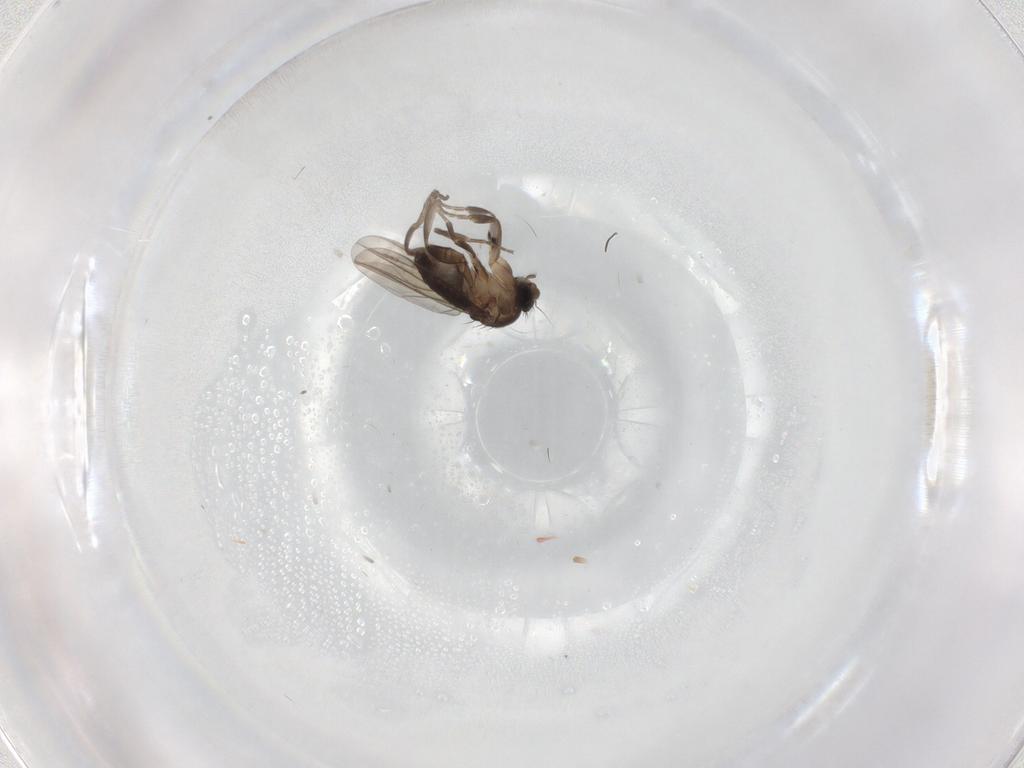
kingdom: Animalia
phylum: Arthropoda
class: Insecta
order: Diptera
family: Phoridae
